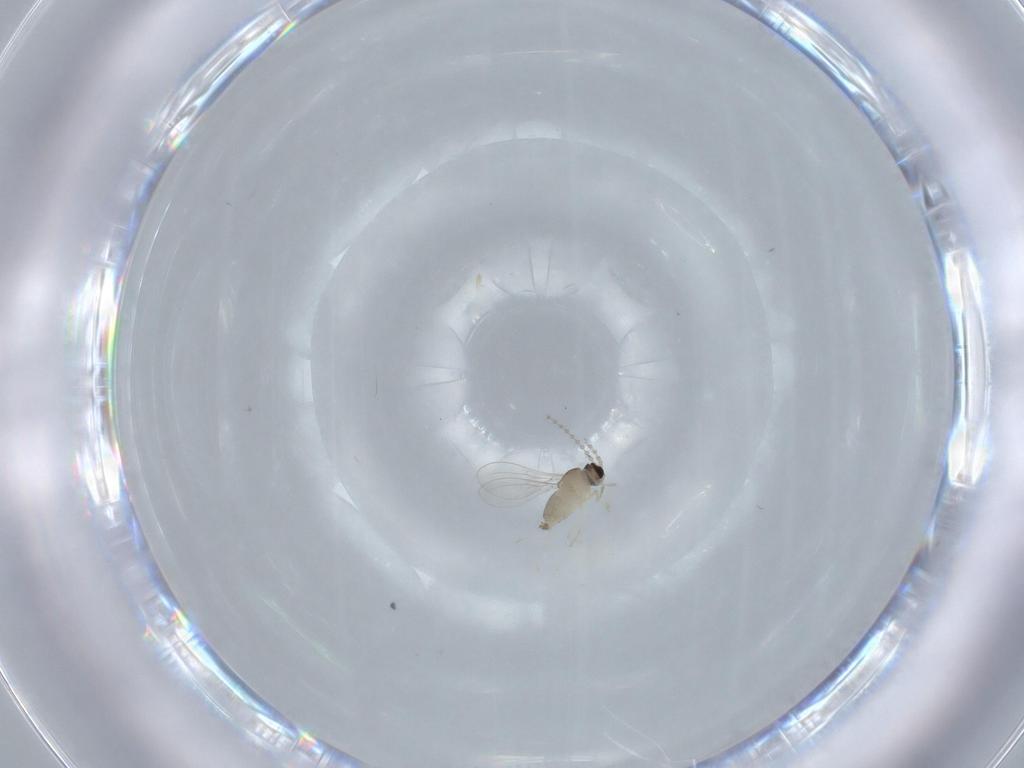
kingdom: Animalia
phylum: Arthropoda
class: Insecta
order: Diptera
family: Cecidomyiidae
